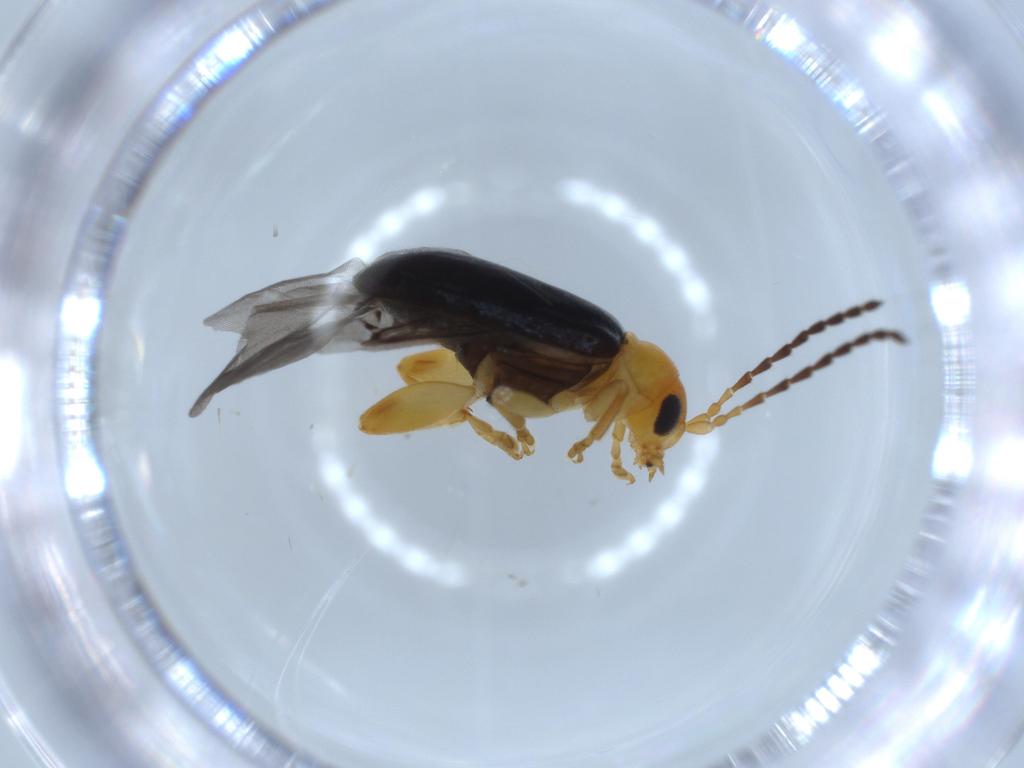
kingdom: Animalia
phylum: Arthropoda
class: Insecta
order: Coleoptera
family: Chrysomelidae
